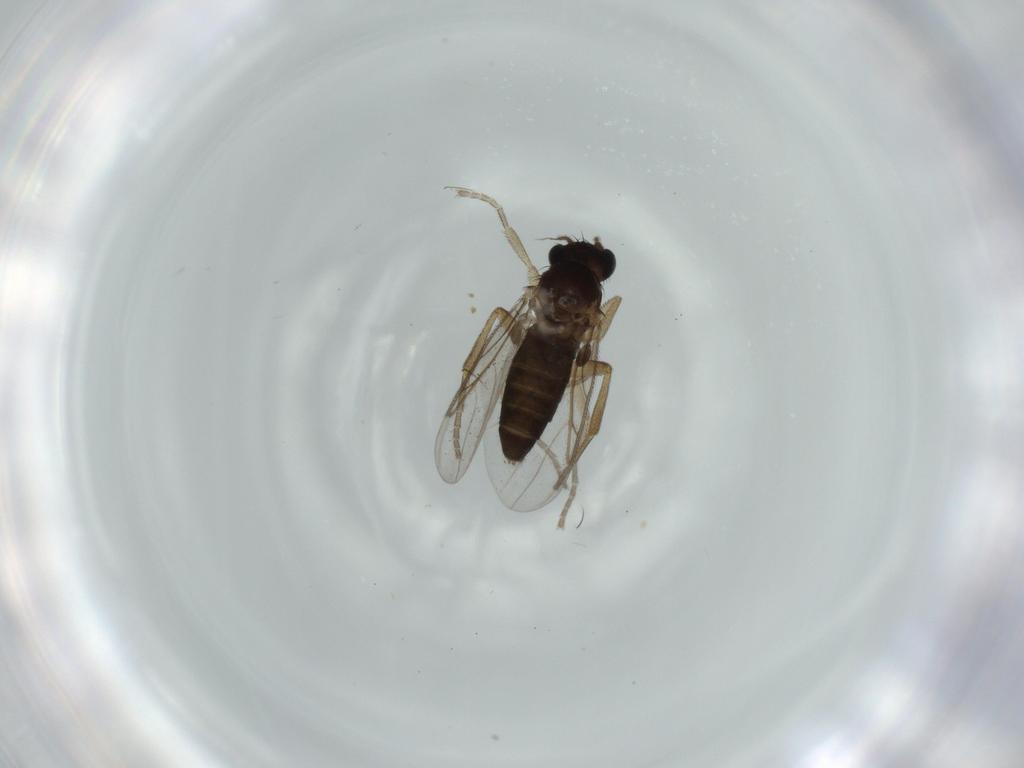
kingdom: Animalia
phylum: Arthropoda
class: Insecta
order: Diptera
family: Phoridae
